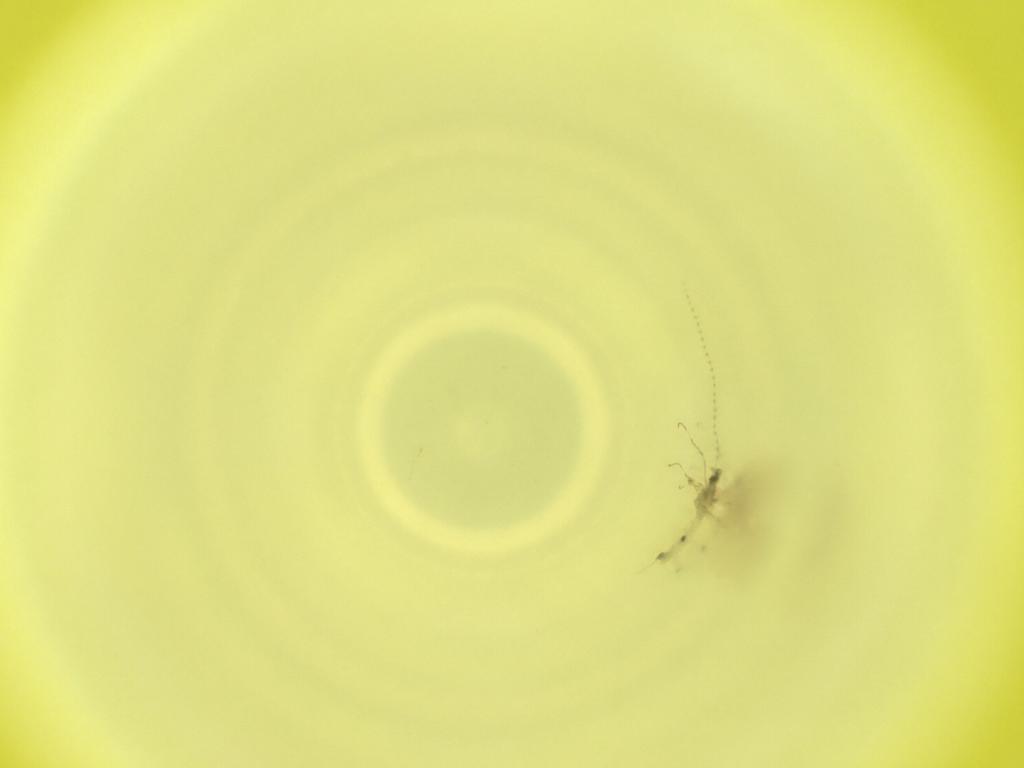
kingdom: Animalia
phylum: Arthropoda
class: Insecta
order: Diptera
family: Cecidomyiidae
